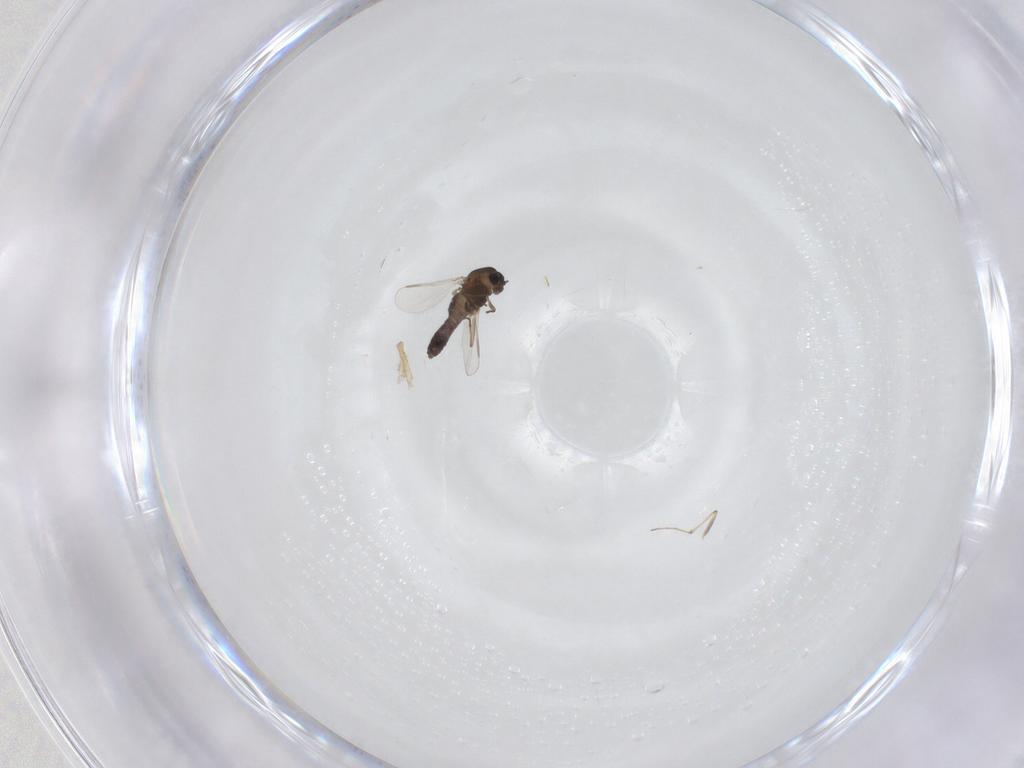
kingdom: Animalia
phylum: Arthropoda
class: Insecta
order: Diptera
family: Chironomidae
